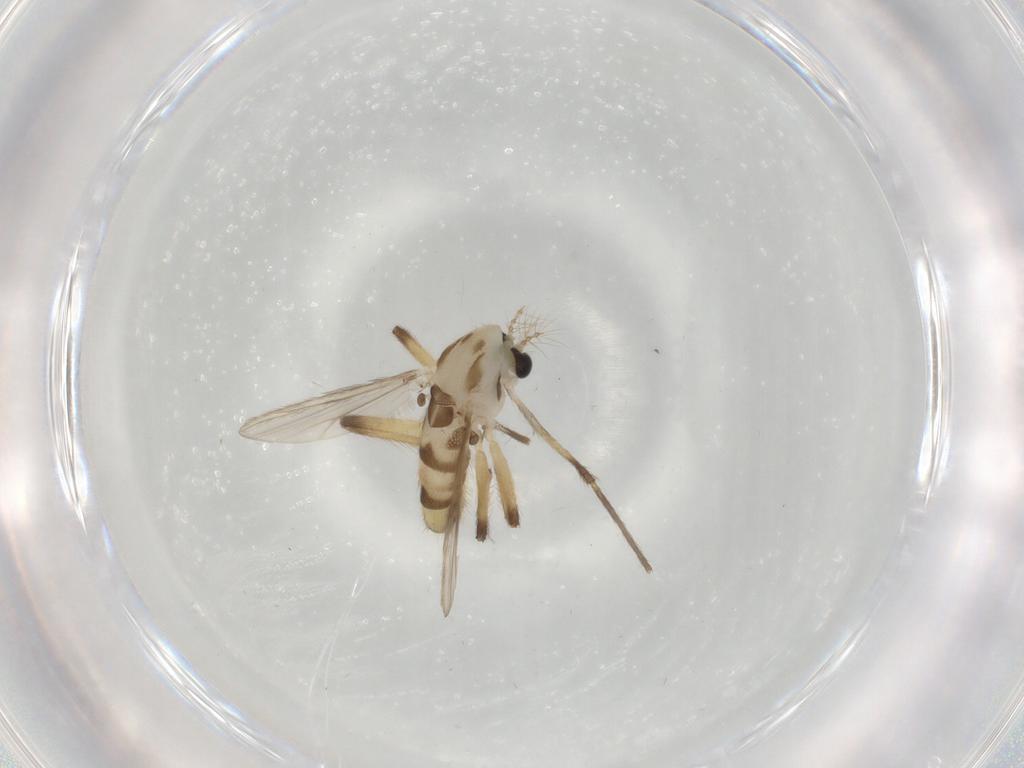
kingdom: Animalia
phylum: Arthropoda
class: Insecta
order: Diptera
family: Chironomidae
